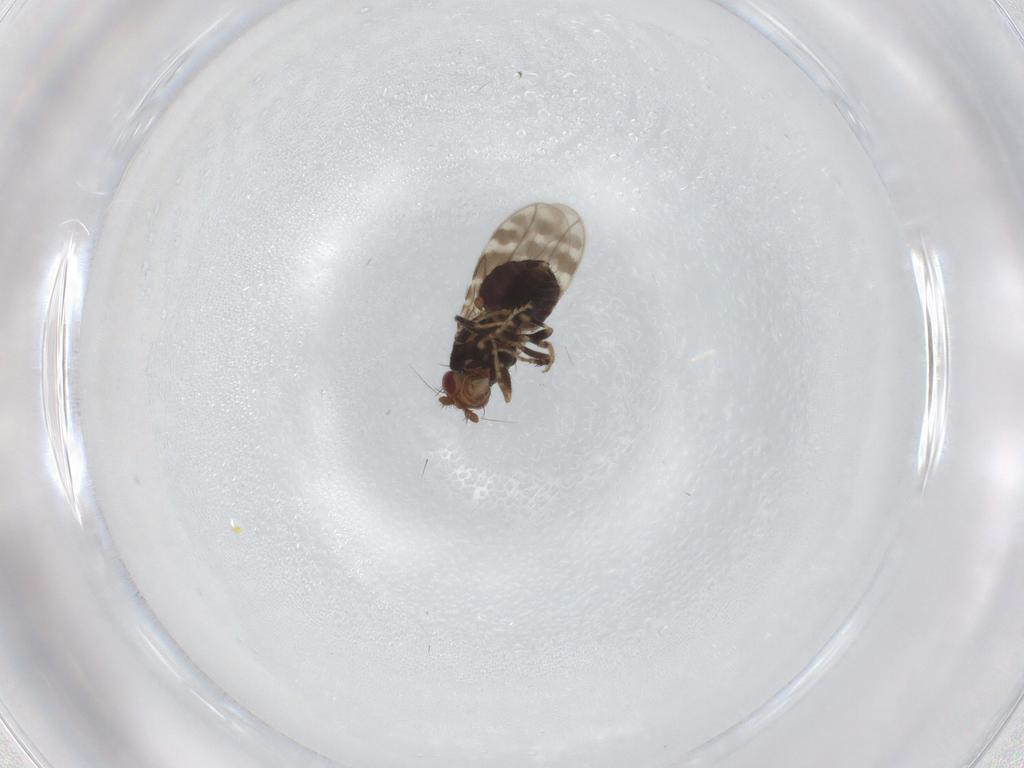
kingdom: Animalia
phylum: Arthropoda
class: Insecta
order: Diptera
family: Sphaeroceridae
